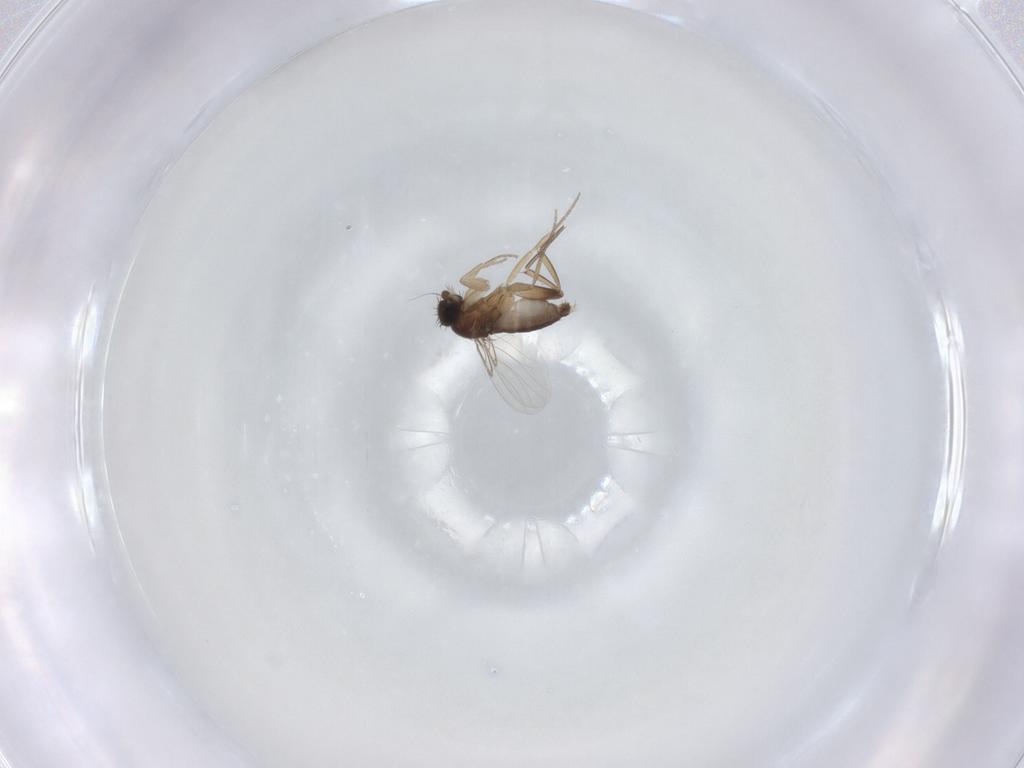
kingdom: Animalia
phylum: Arthropoda
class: Insecta
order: Diptera
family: Phoridae
